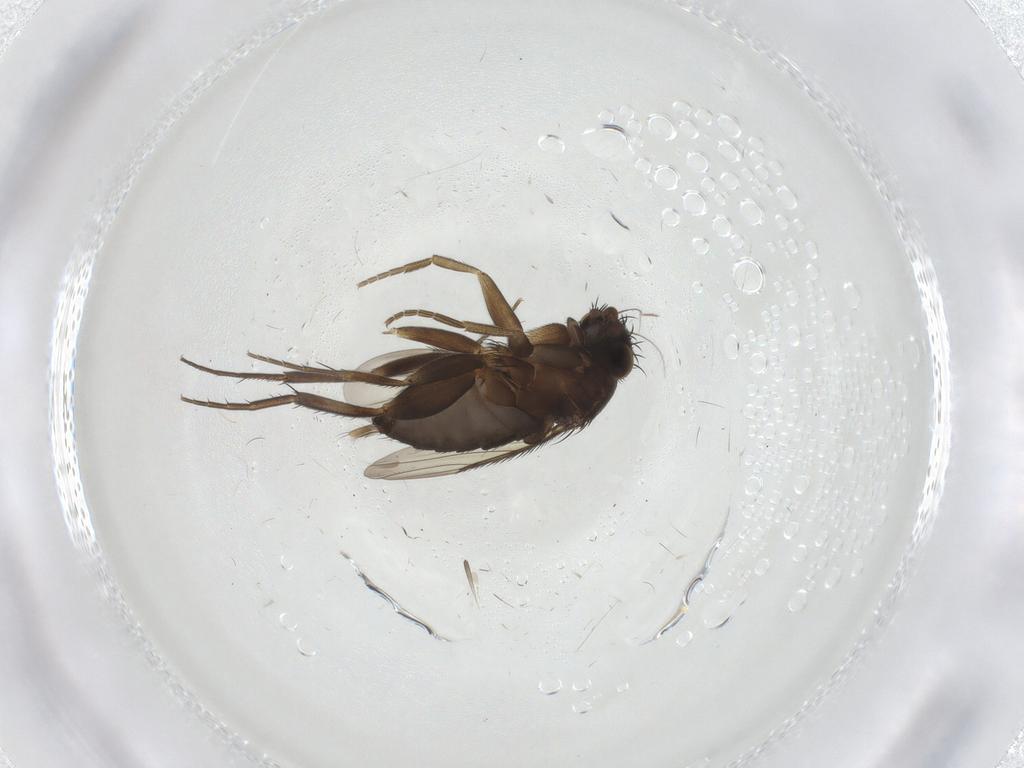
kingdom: Animalia
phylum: Arthropoda
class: Insecta
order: Diptera
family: Phoridae
